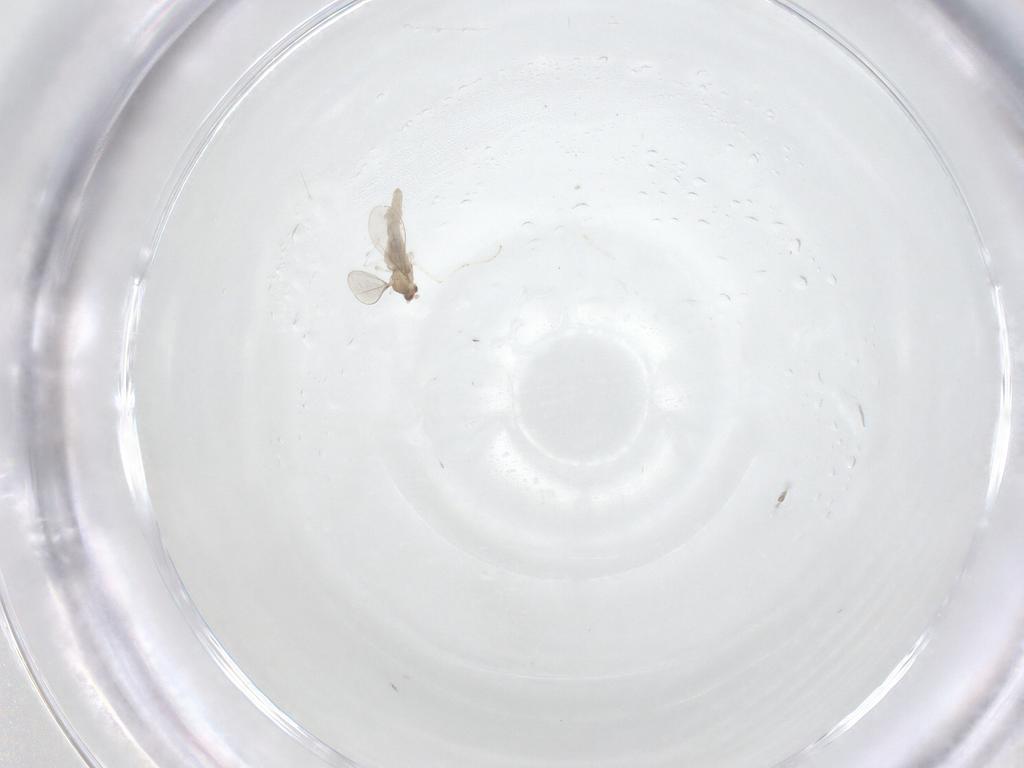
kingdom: Animalia
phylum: Arthropoda
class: Insecta
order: Diptera
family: Cecidomyiidae
